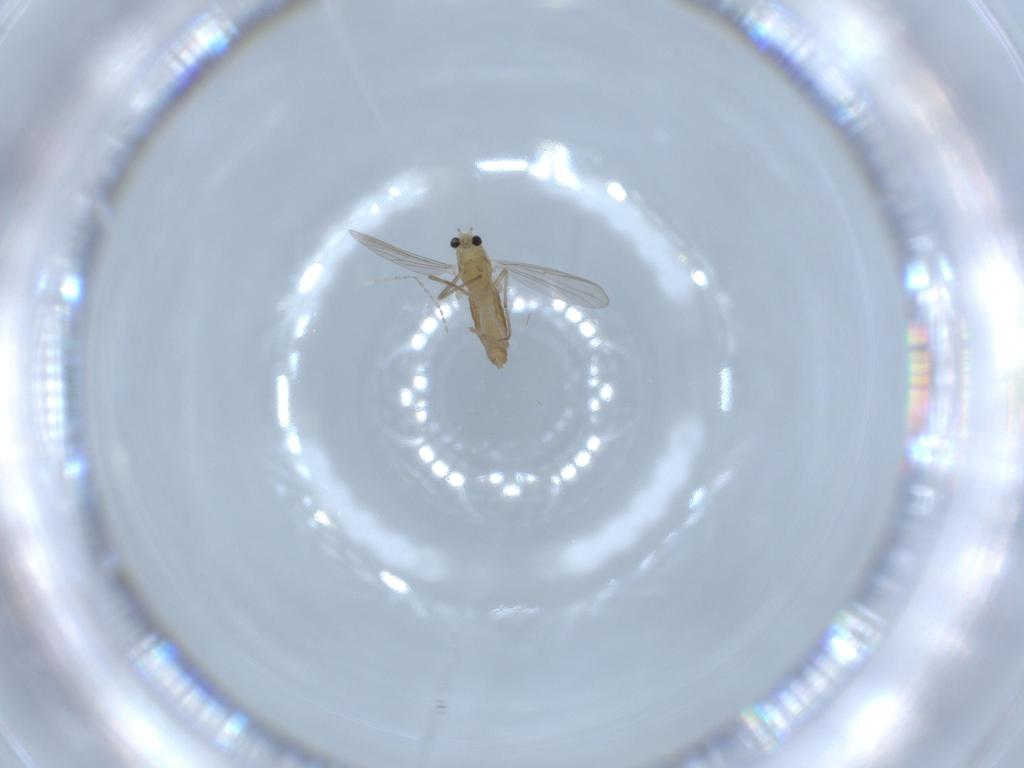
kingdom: Animalia
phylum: Arthropoda
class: Insecta
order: Diptera
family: Chironomidae
